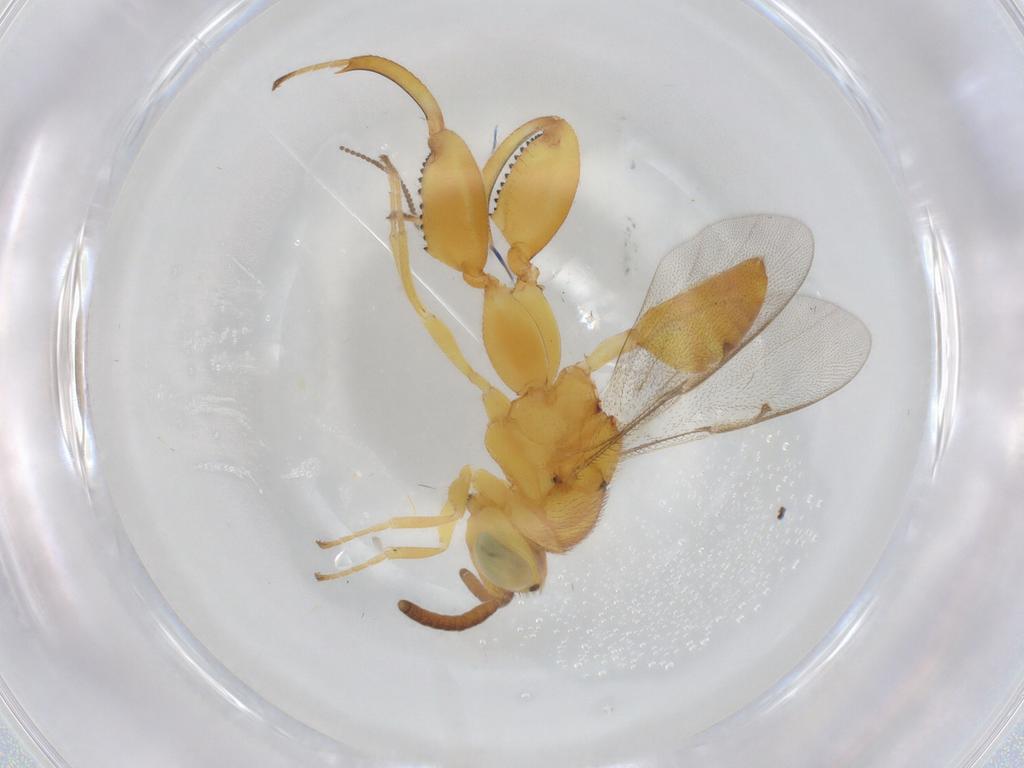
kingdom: Animalia
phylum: Arthropoda
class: Insecta
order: Hymenoptera
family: Chalcididae
